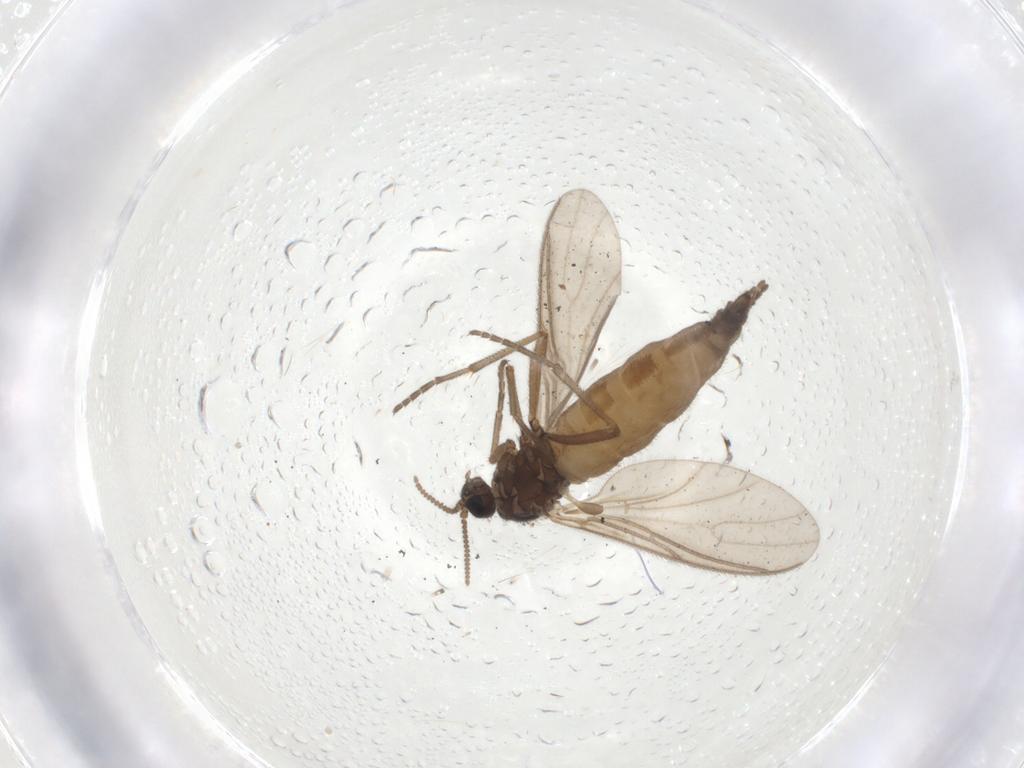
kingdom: Animalia
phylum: Arthropoda
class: Insecta
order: Diptera
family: Sciaridae
